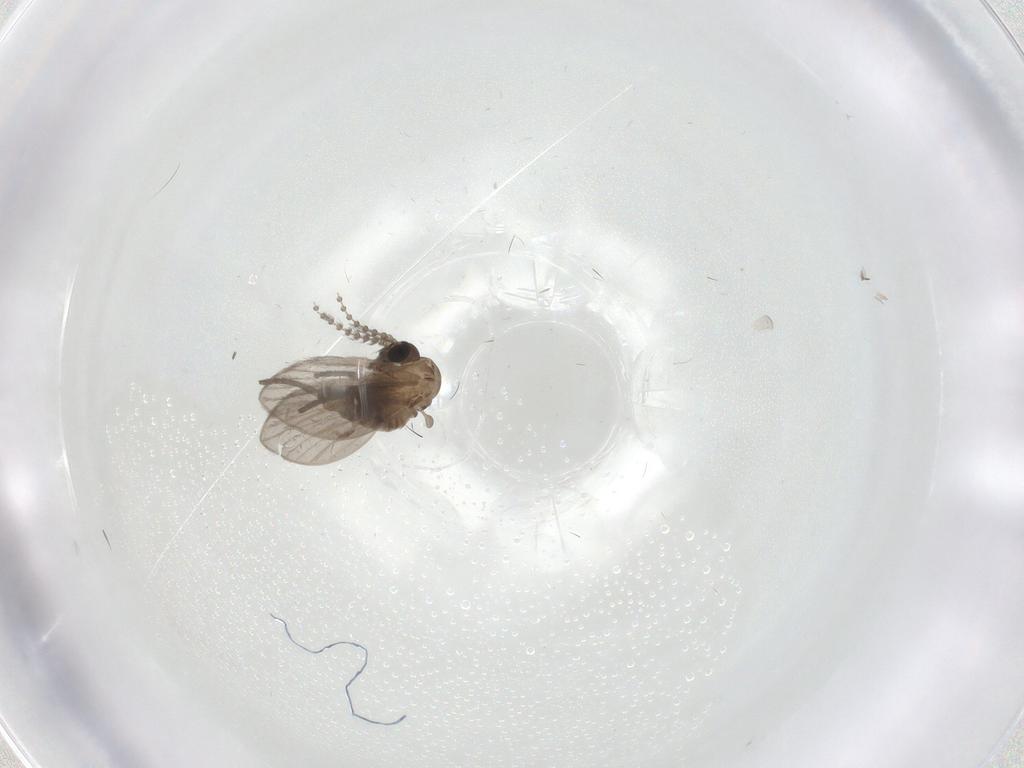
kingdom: Animalia
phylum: Arthropoda
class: Insecta
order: Diptera
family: Psychodidae
